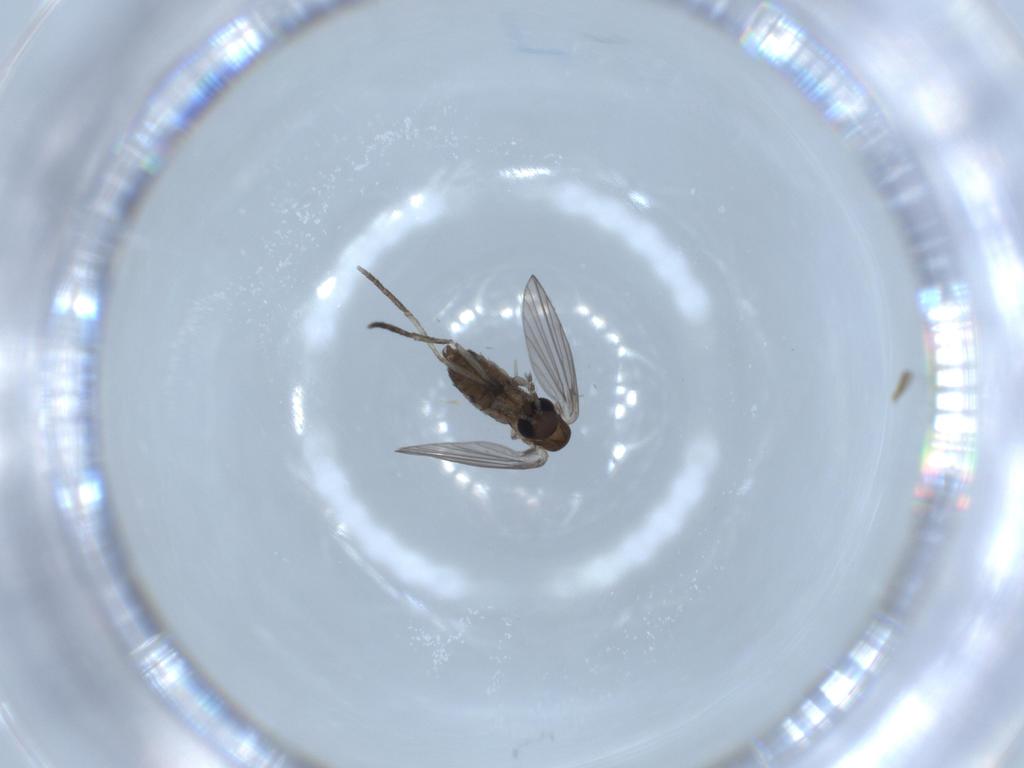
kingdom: Animalia
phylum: Arthropoda
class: Insecta
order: Diptera
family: Psychodidae
